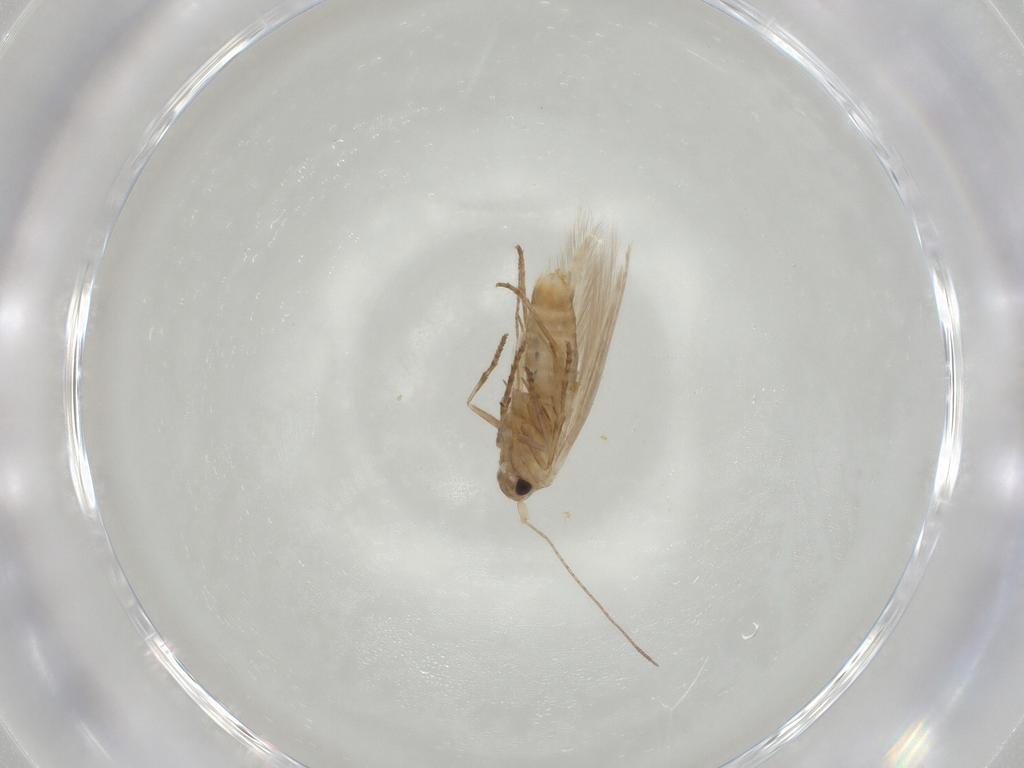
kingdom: Animalia
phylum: Arthropoda
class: Insecta
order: Lepidoptera
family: Bucculatricidae
